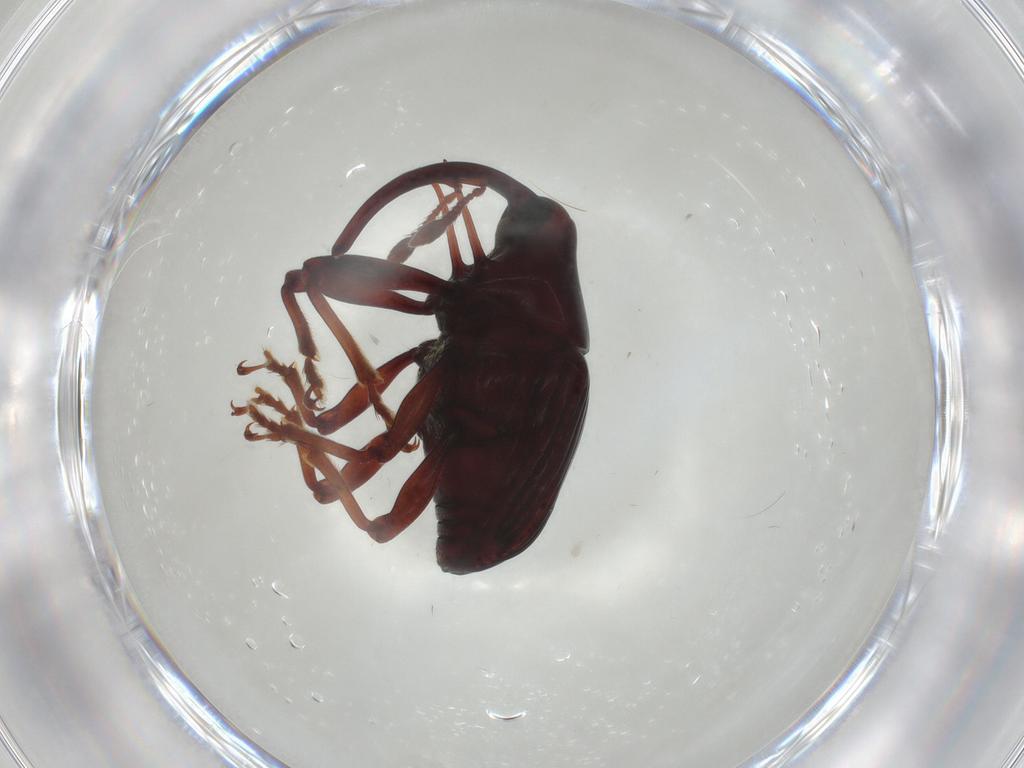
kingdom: Animalia
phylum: Arthropoda
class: Insecta
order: Coleoptera
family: Curculionidae
